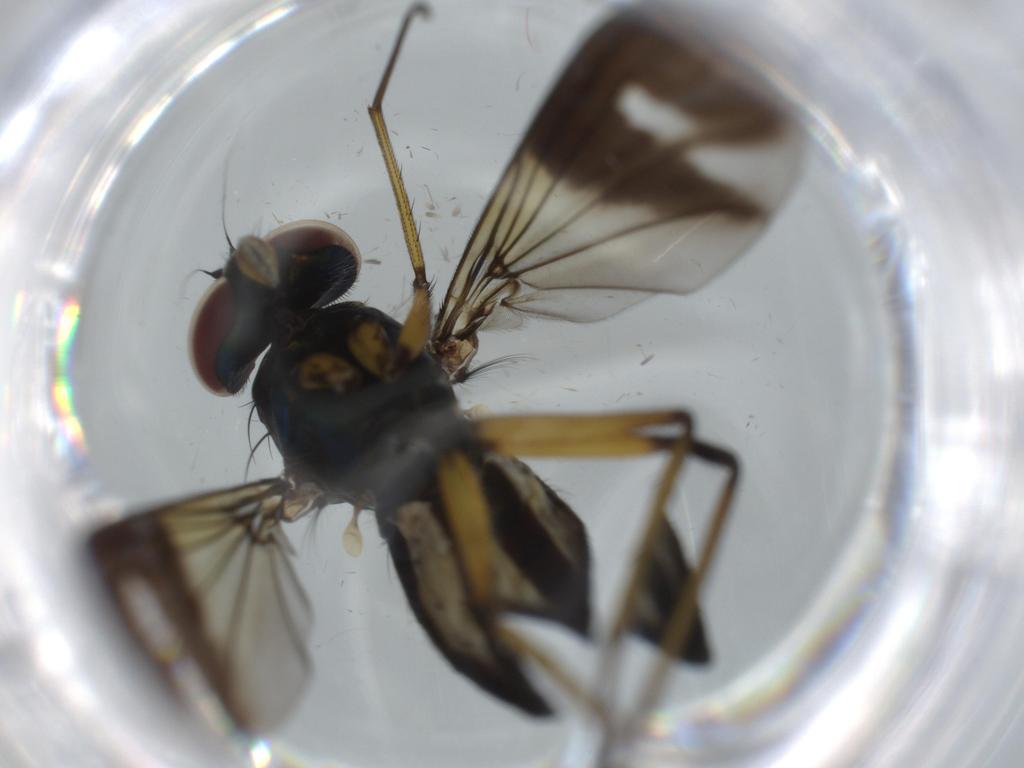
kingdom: Animalia
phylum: Arthropoda
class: Insecta
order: Diptera
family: Dolichopodidae
